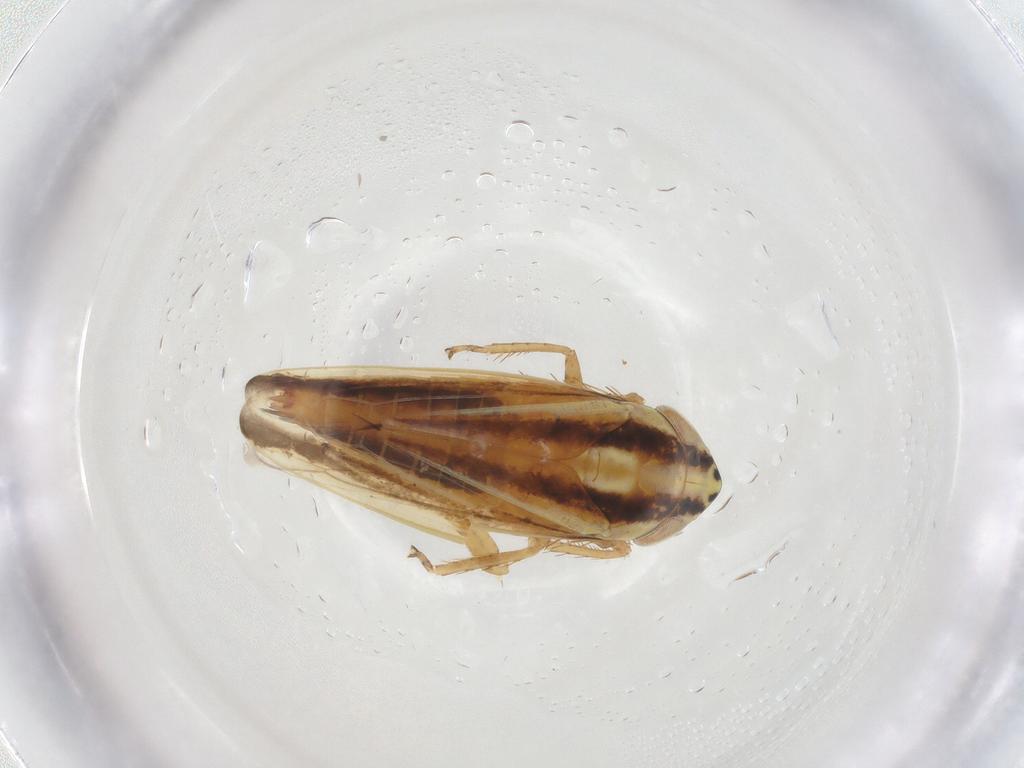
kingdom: Animalia
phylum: Arthropoda
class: Insecta
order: Hemiptera
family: Cicadellidae
